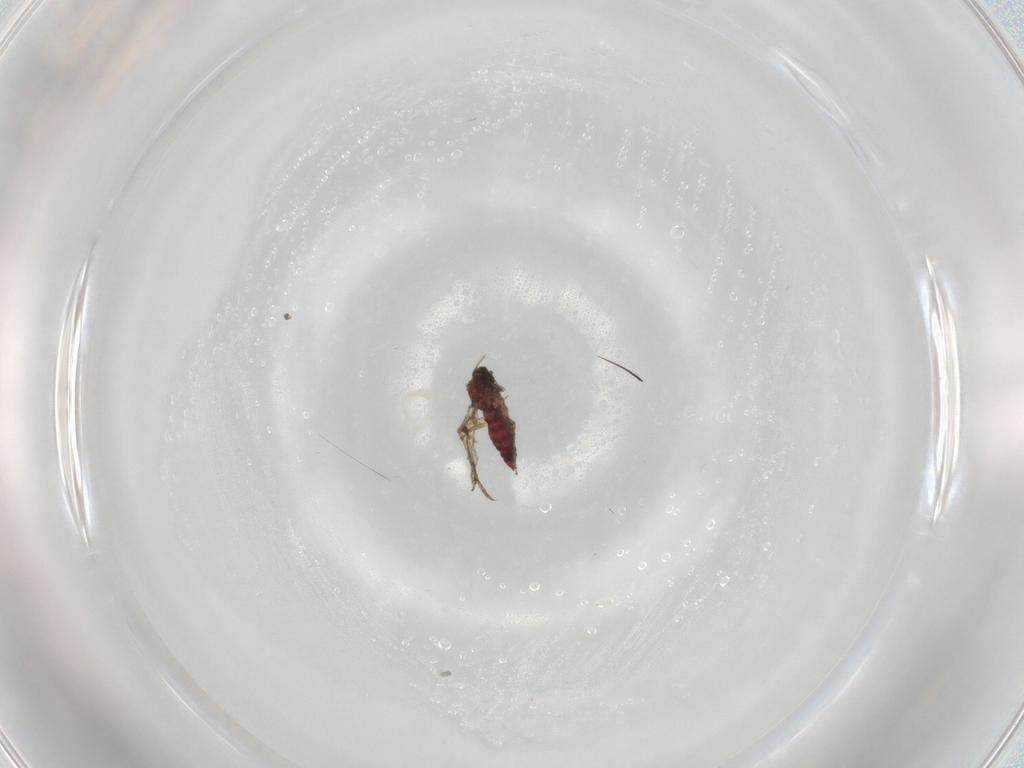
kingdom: Animalia
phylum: Arthropoda
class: Insecta
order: Diptera
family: Ceratopogonidae
